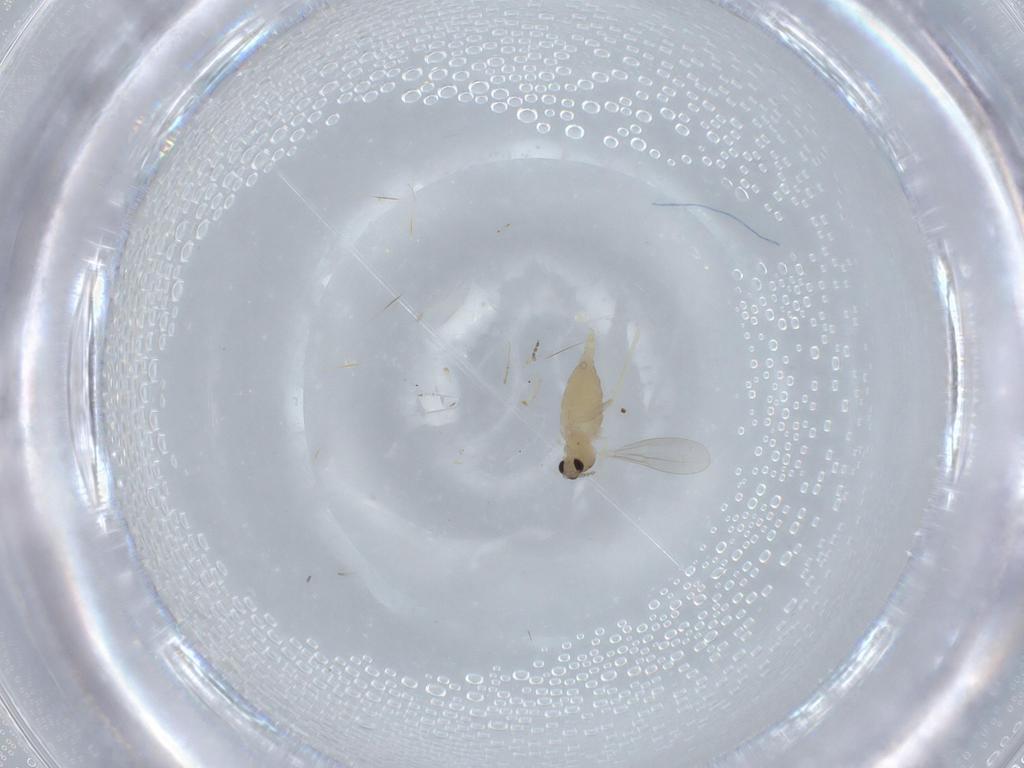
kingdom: Animalia
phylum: Arthropoda
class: Insecta
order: Diptera
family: Cecidomyiidae
